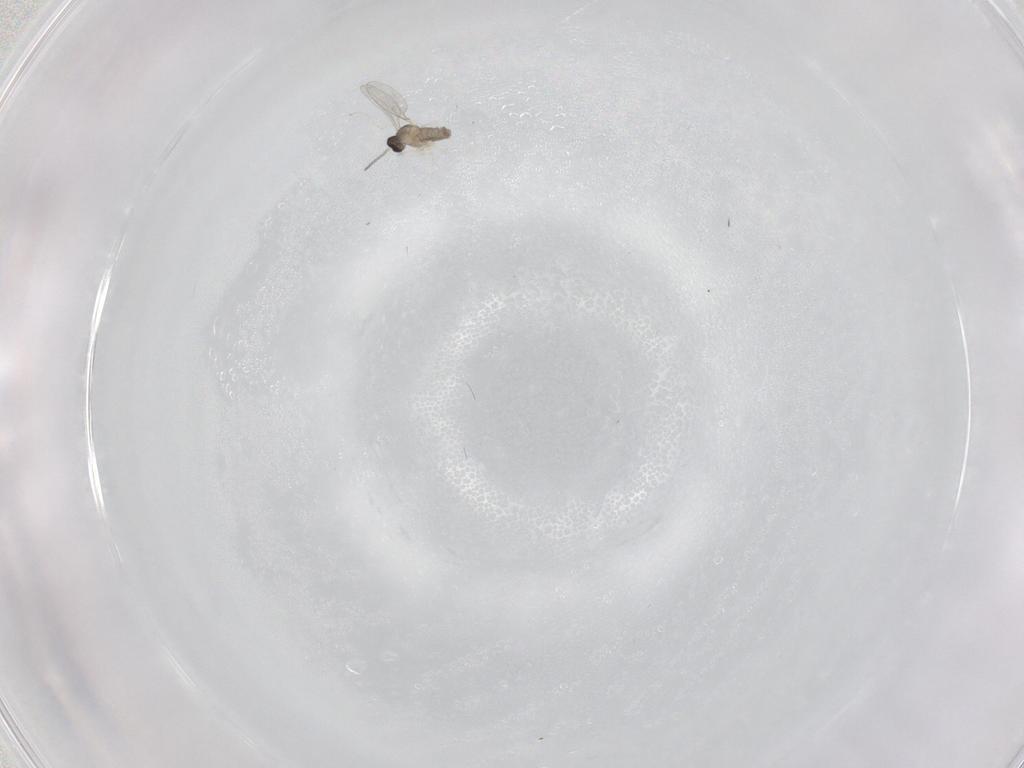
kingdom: Animalia
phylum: Arthropoda
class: Insecta
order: Diptera
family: Cecidomyiidae
